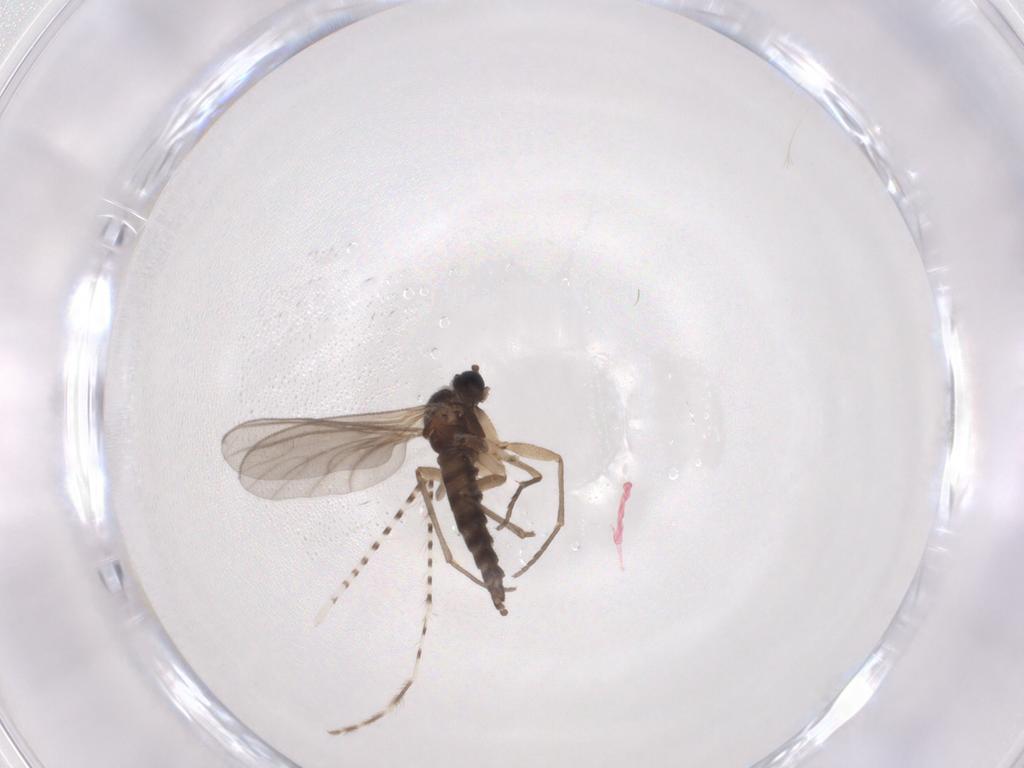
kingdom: Animalia
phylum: Arthropoda
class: Insecta
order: Diptera
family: Sciaridae
